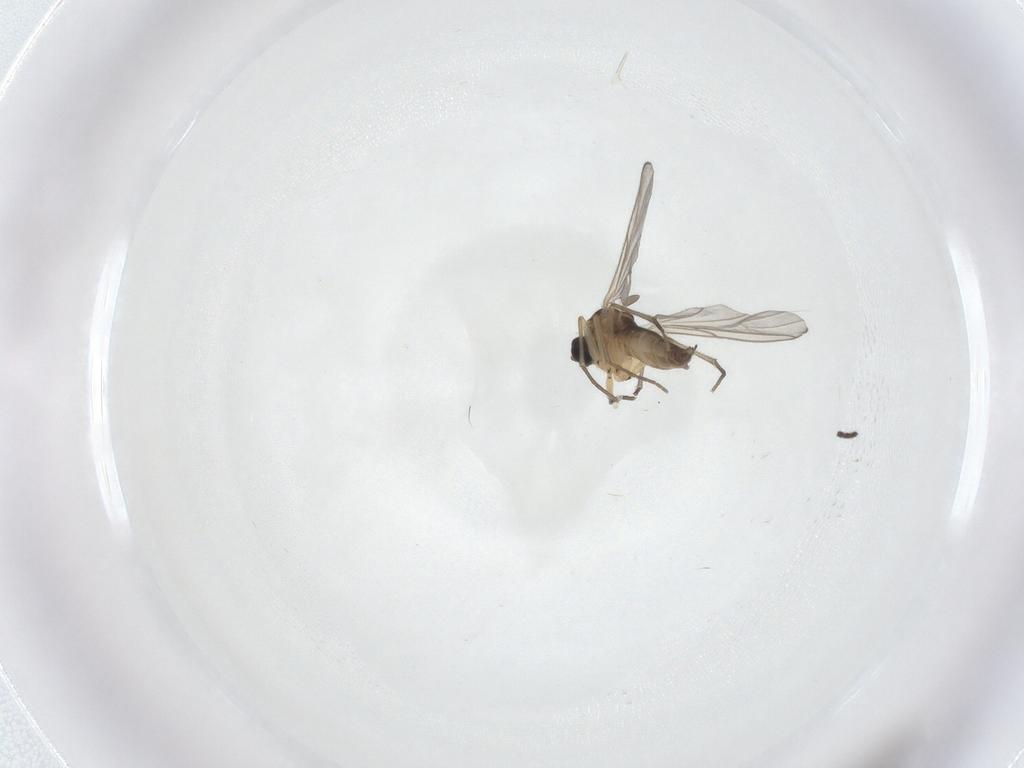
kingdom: Animalia
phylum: Arthropoda
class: Insecta
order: Diptera
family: Sciaridae
